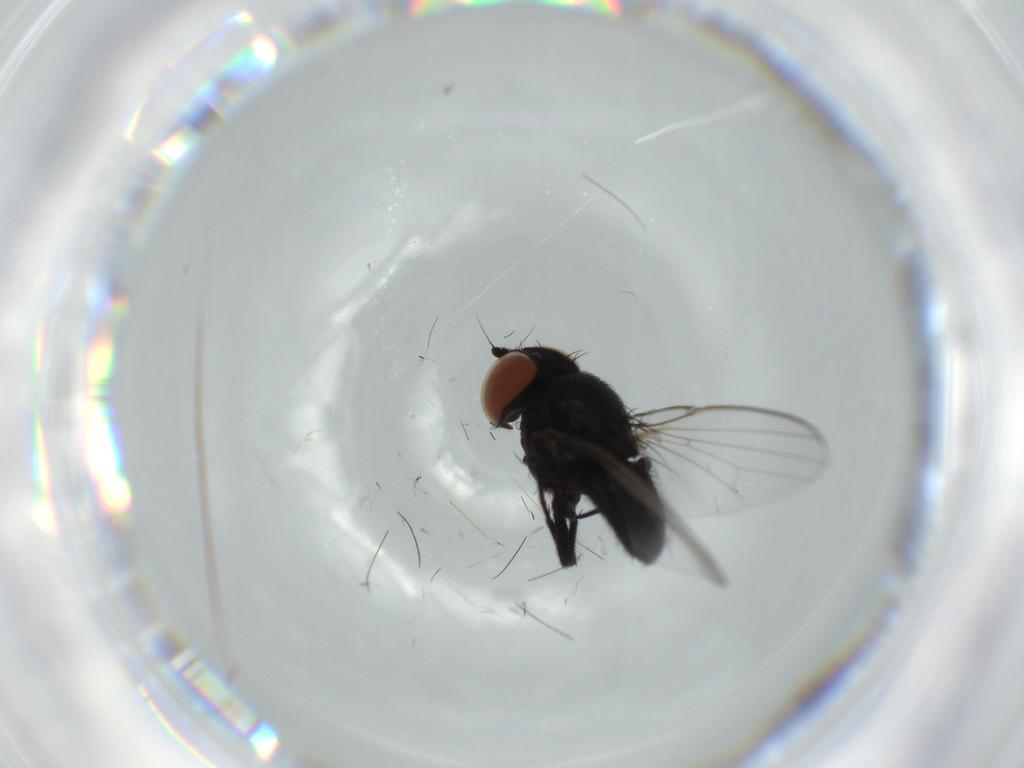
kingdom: Animalia
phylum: Arthropoda
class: Insecta
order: Diptera
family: Milichiidae
